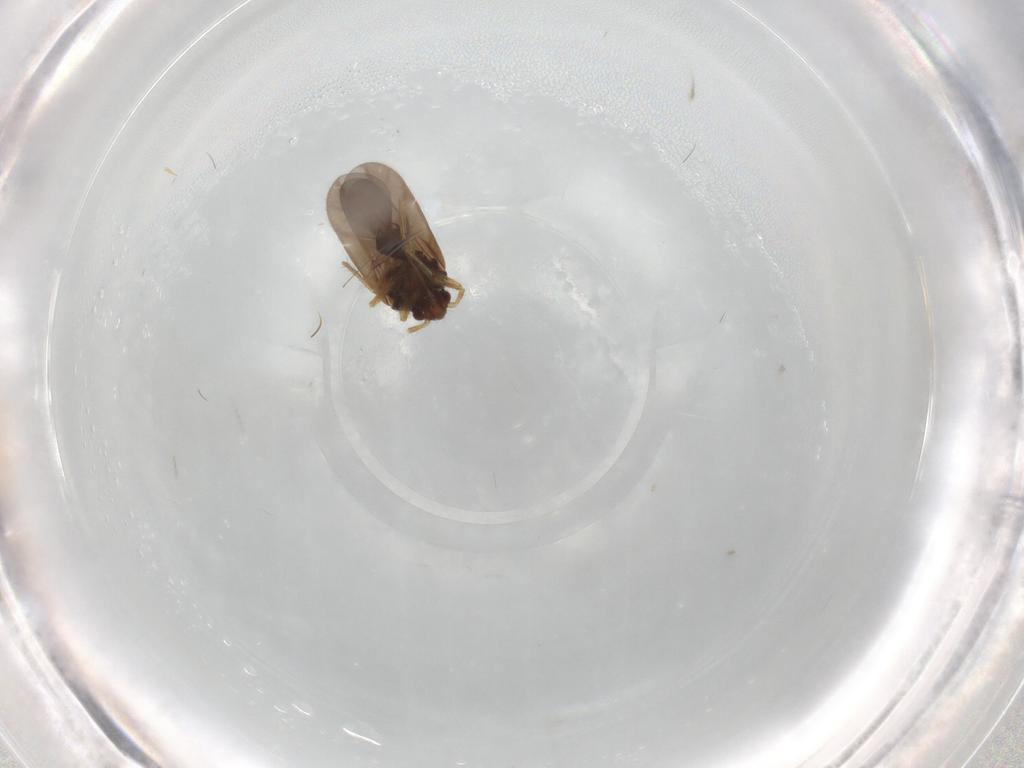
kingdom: Animalia
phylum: Arthropoda
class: Insecta
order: Hemiptera
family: Ceratocombidae
